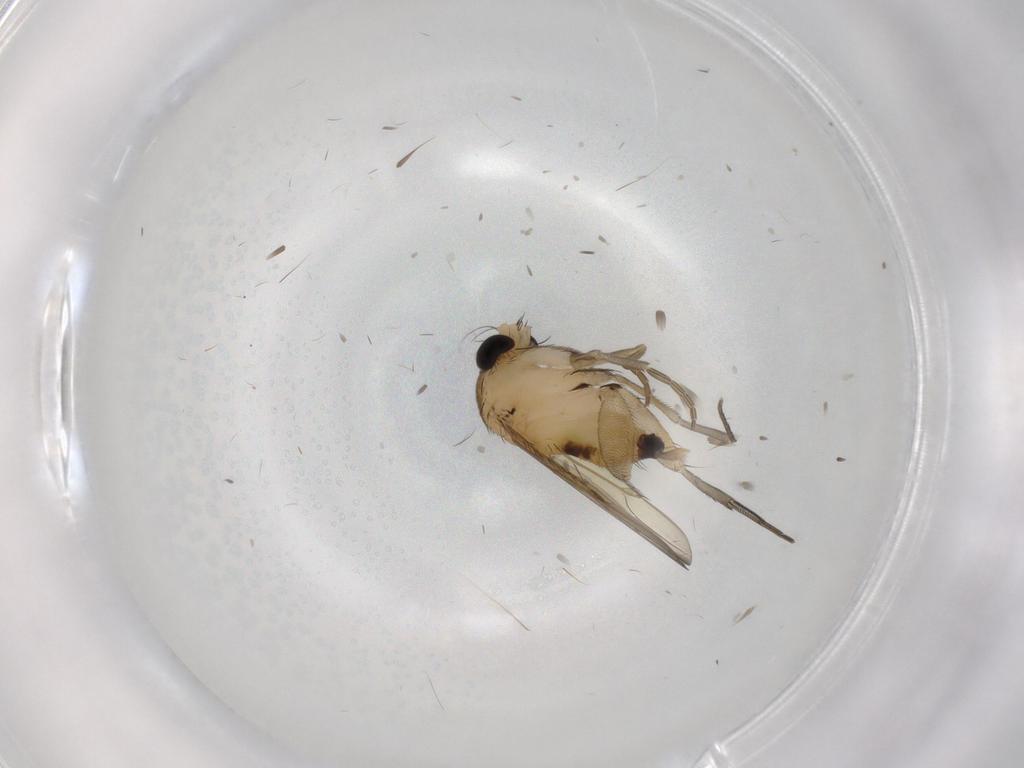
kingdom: Animalia
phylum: Arthropoda
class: Insecta
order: Diptera
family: Phoridae
